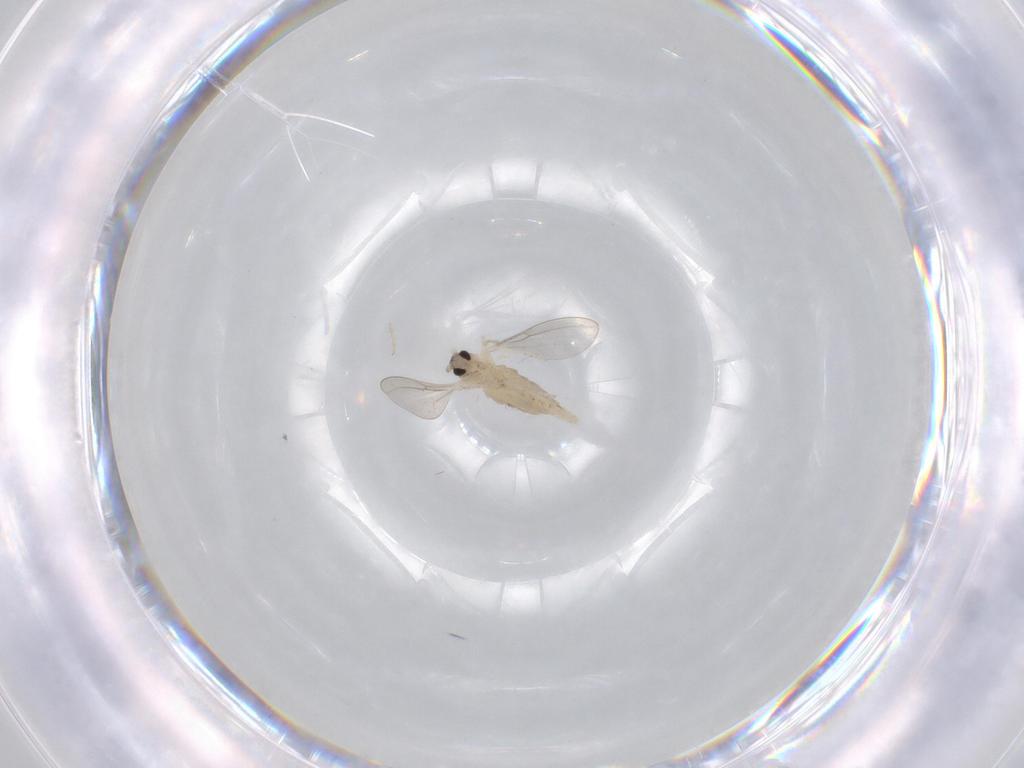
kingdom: Animalia
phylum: Arthropoda
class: Insecta
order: Diptera
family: Cecidomyiidae
